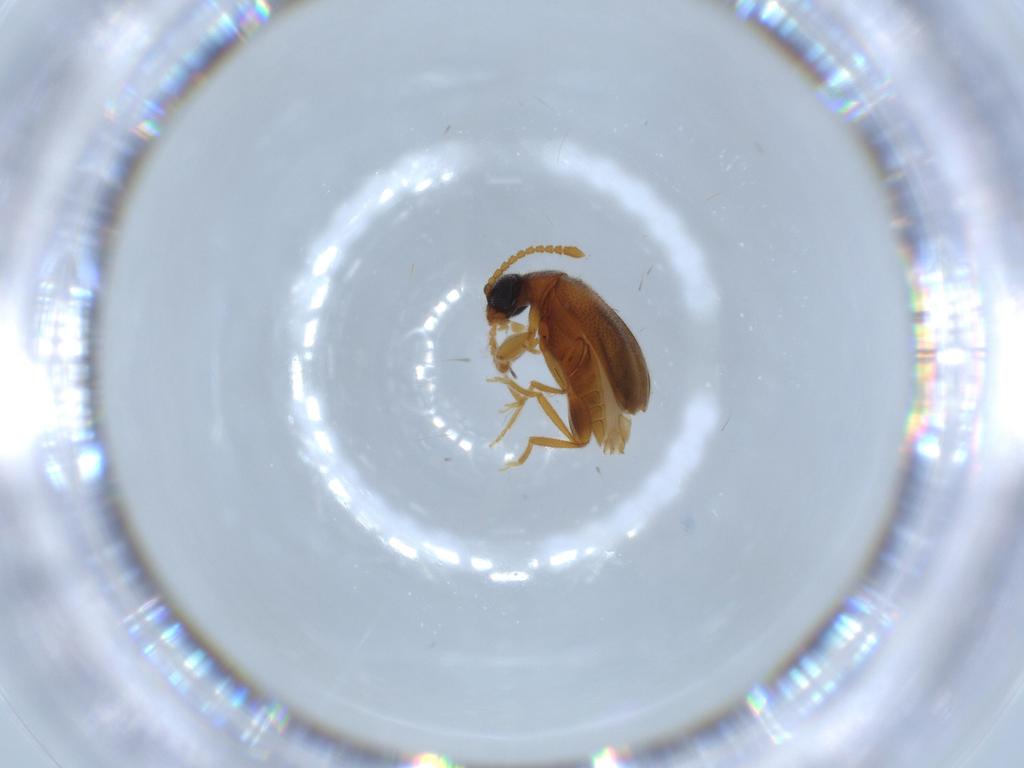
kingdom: Animalia
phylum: Arthropoda
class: Insecta
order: Coleoptera
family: Aderidae
